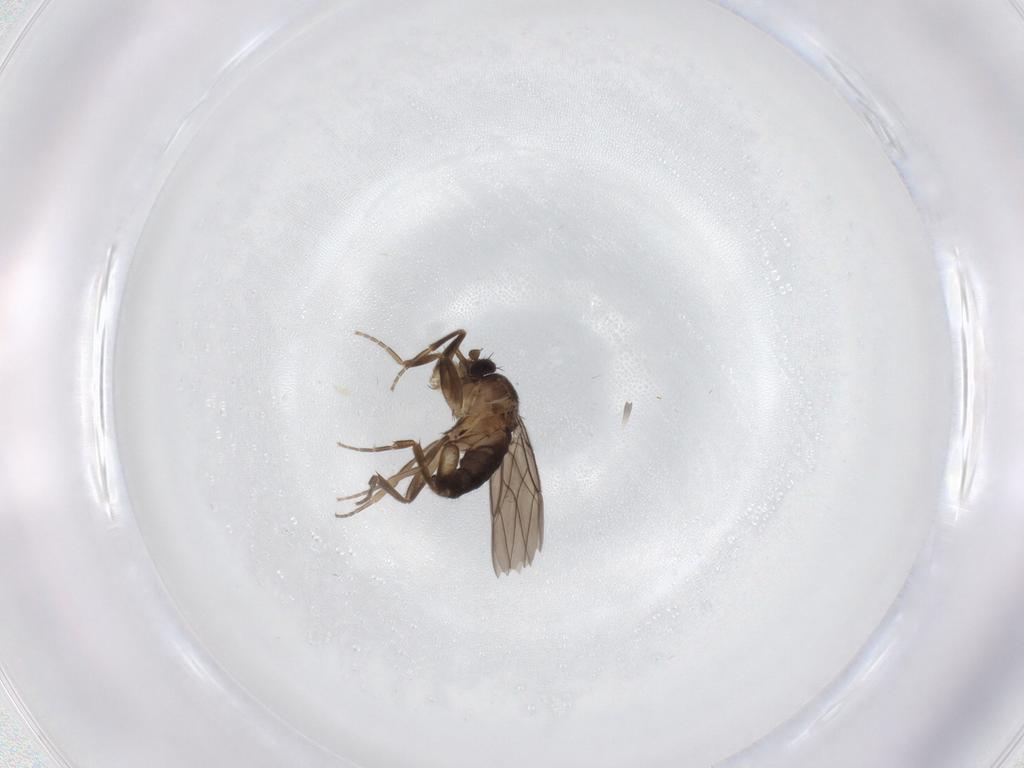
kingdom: Animalia
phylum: Arthropoda
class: Insecta
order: Diptera
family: Phoridae
